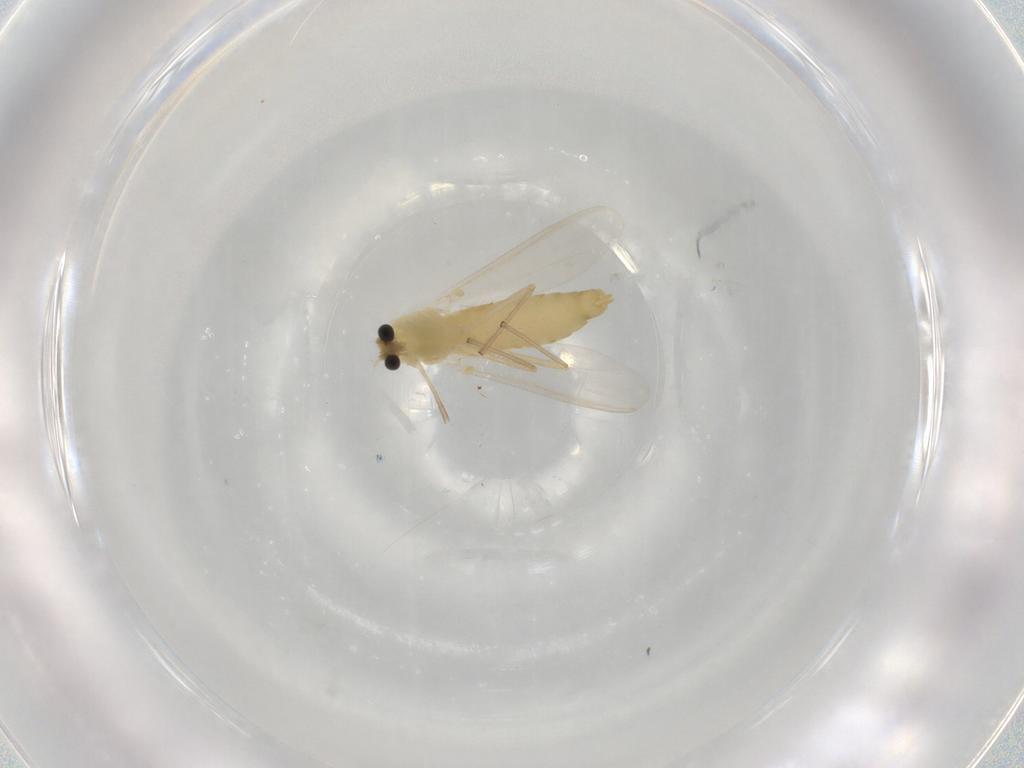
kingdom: Animalia
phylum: Arthropoda
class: Insecta
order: Diptera
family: Chironomidae
